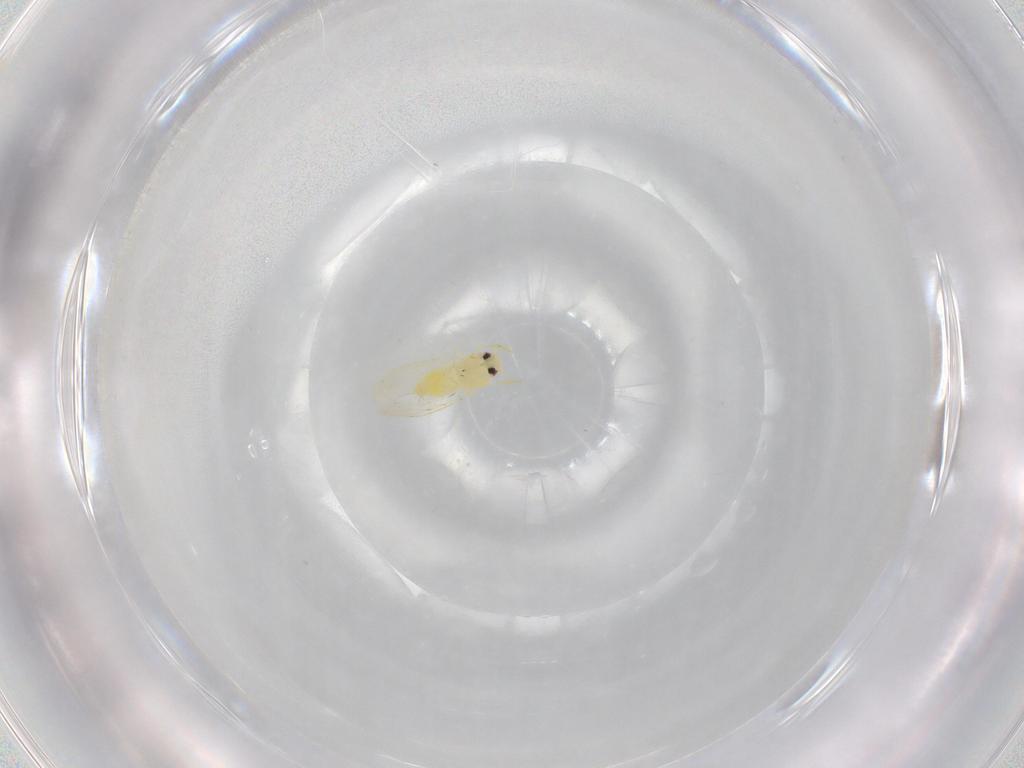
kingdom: Animalia
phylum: Arthropoda
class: Insecta
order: Hemiptera
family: Aleyrodidae
